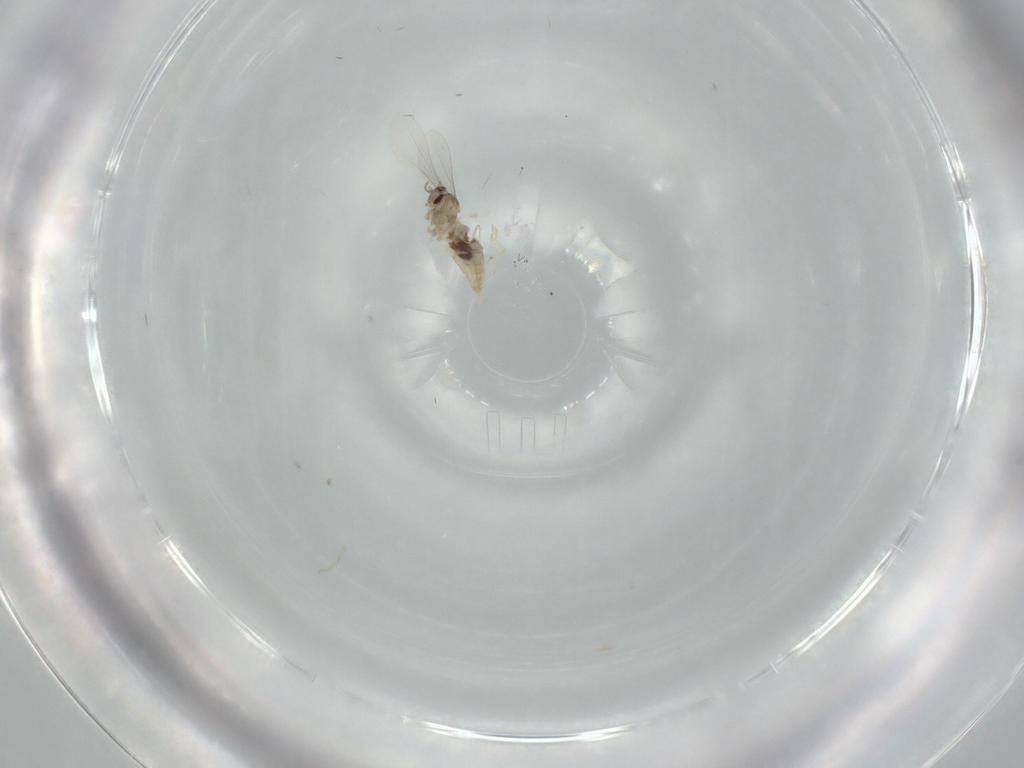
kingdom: Animalia
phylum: Arthropoda
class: Insecta
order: Diptera
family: Cecidomyiidae
